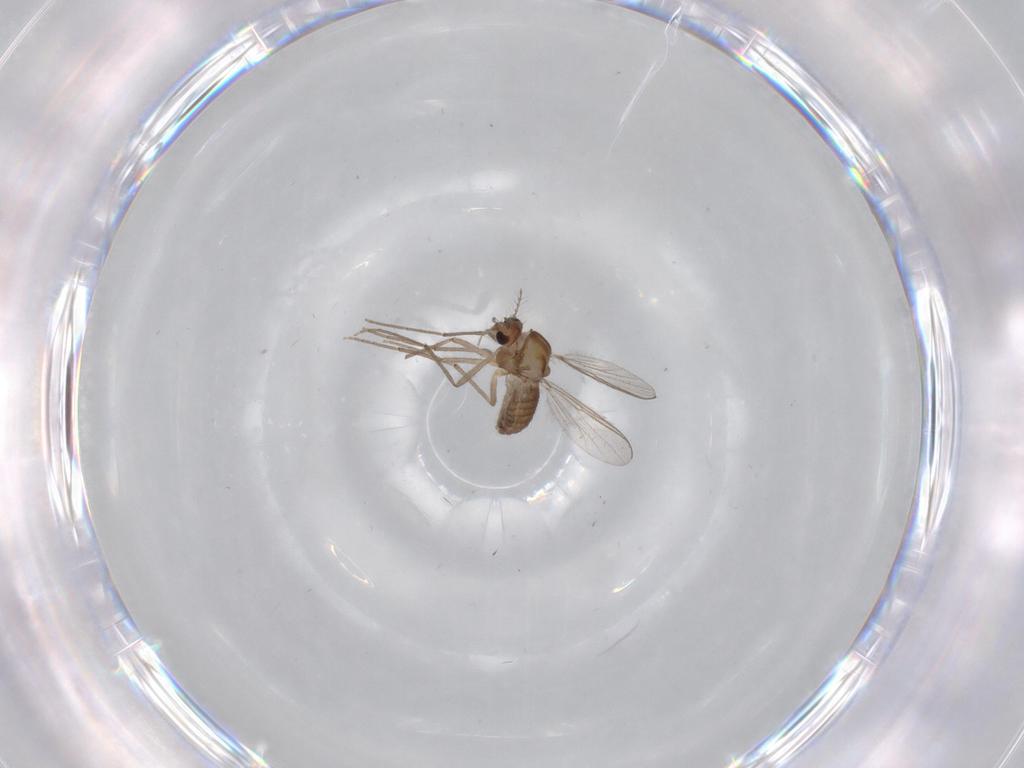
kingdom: Animalia
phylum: Arthropoda
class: Insecta
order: Diptera
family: Chironomidae
